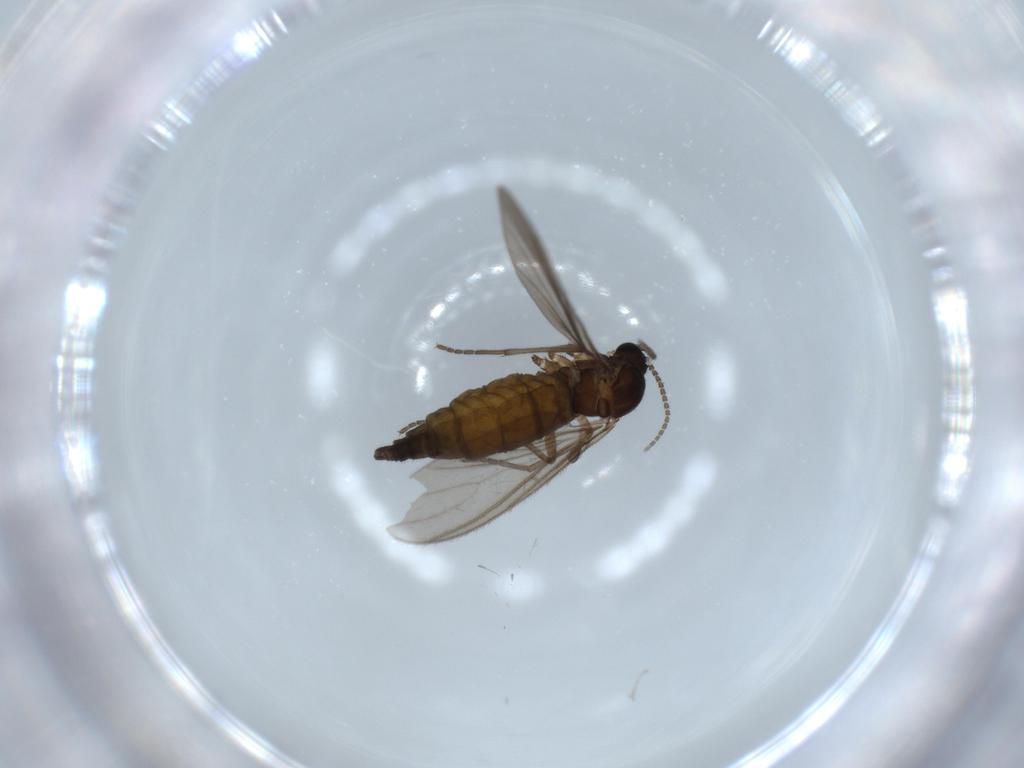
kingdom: Animalia
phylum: Arthropoda
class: Insecta
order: Diptera
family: Sciaridae
